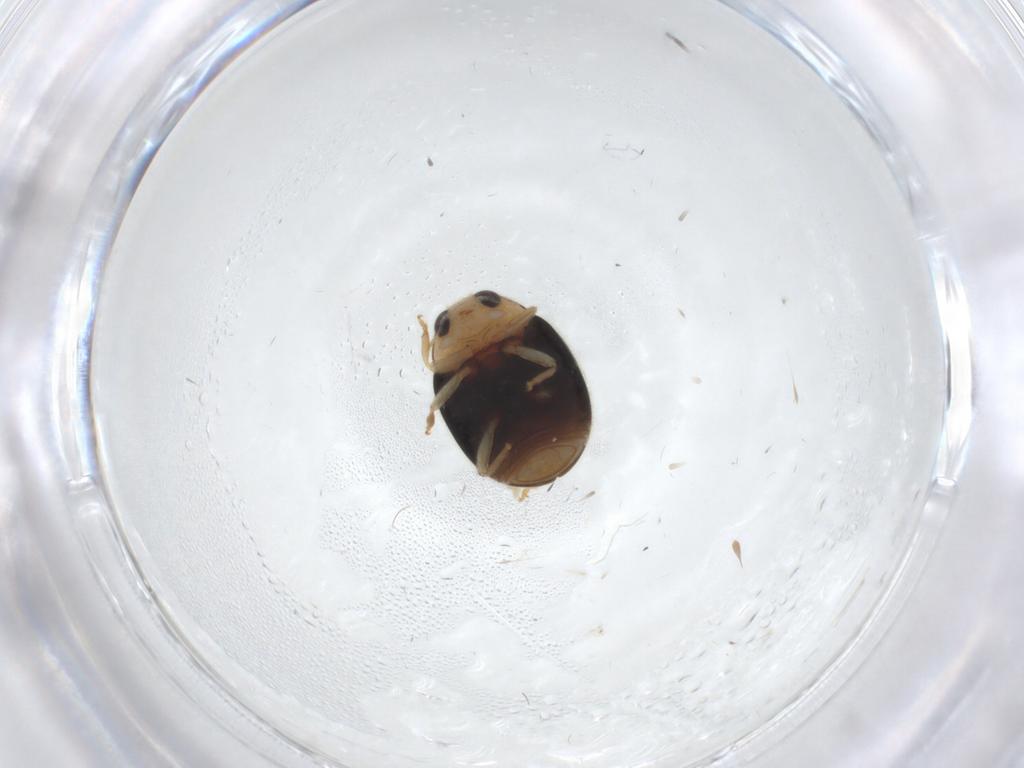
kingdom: Animalia
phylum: Arthropoda
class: Insecta
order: Coleoptera
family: Coccinellidae
